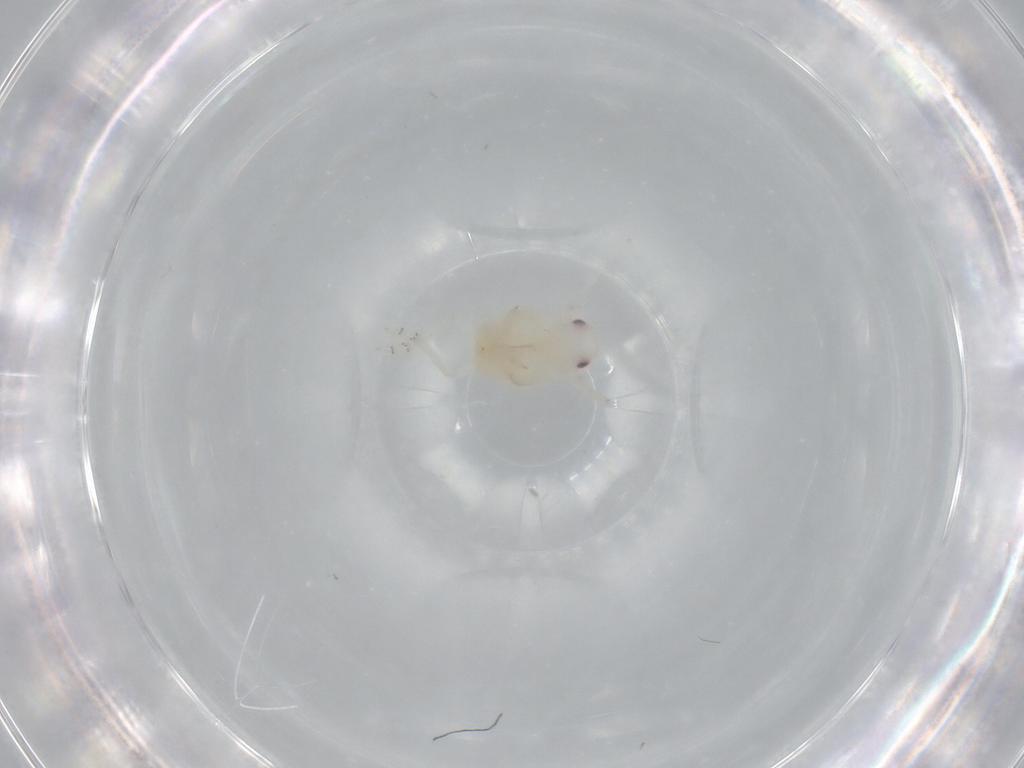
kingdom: Animalia
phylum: Arthropoda
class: Insecta
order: Hemiptera
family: Flatidae
